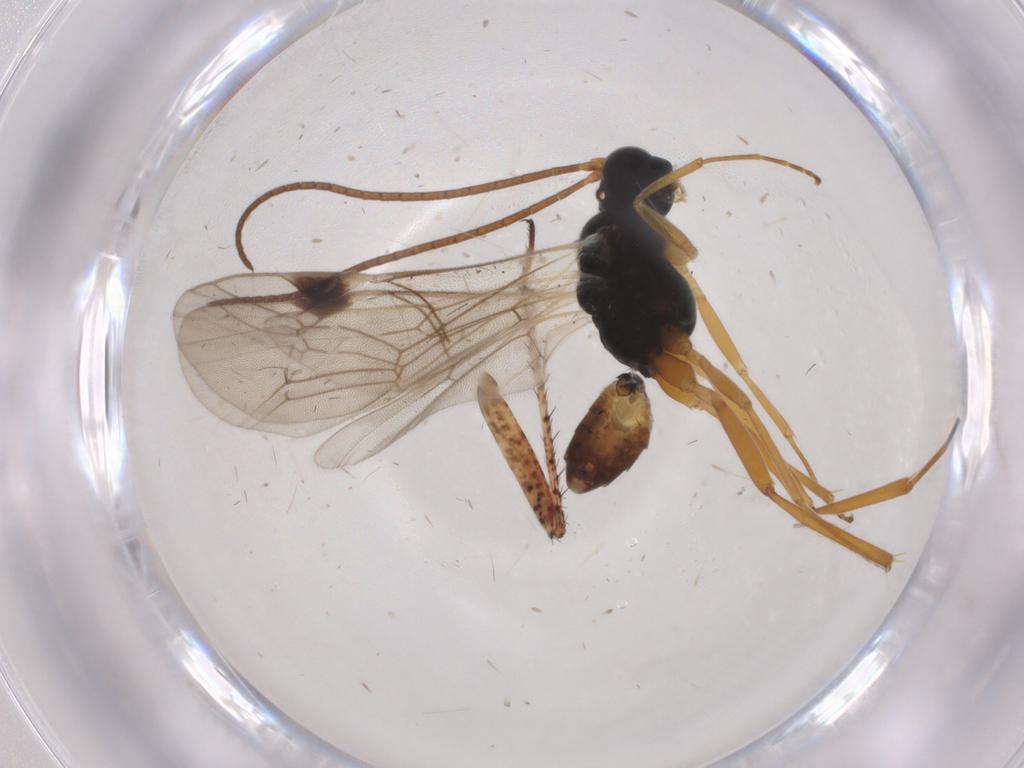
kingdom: Animalia
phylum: Arthropoda
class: Insecta
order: Hymenoptera
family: Ichneumonidae
